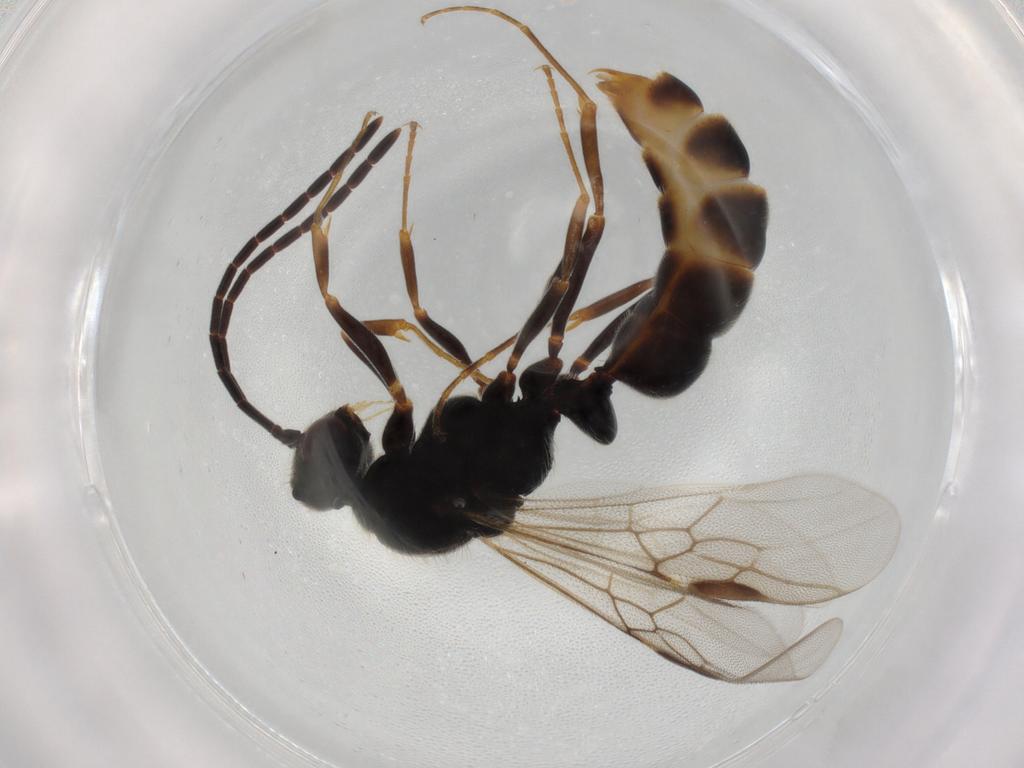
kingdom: Animalia
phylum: Arthropoda
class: Insecta
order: Hymenoptera
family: Formicidae
